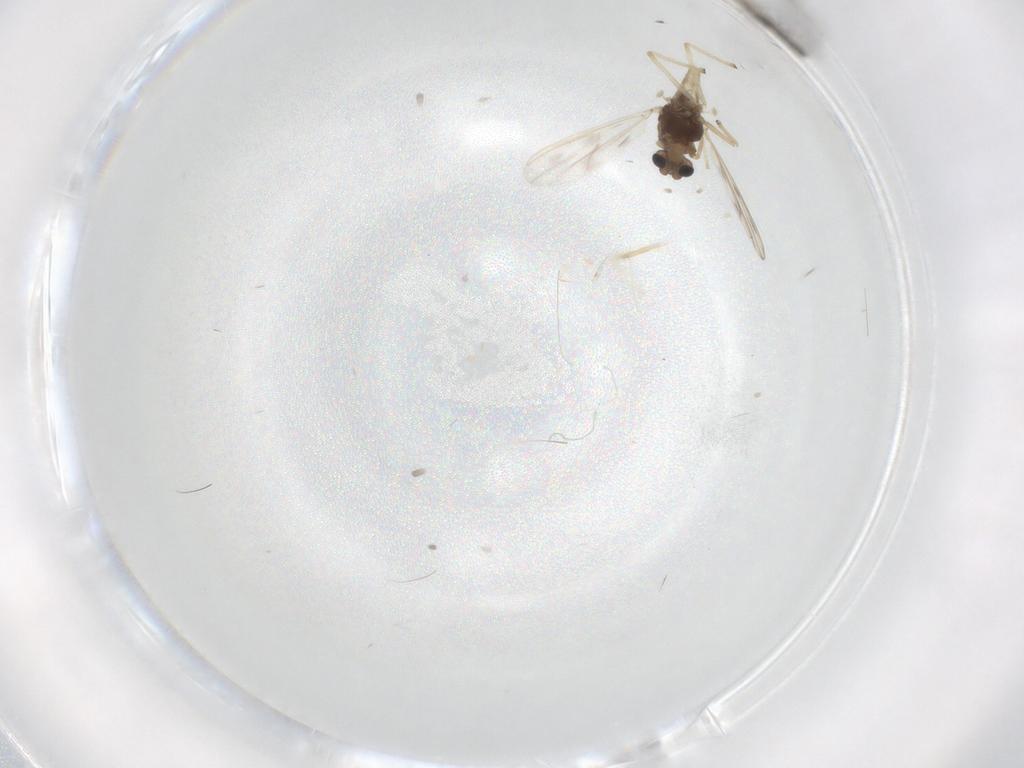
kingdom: Animalia
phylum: Arthropoda
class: Insecta
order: Diptera
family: Chironomidae
